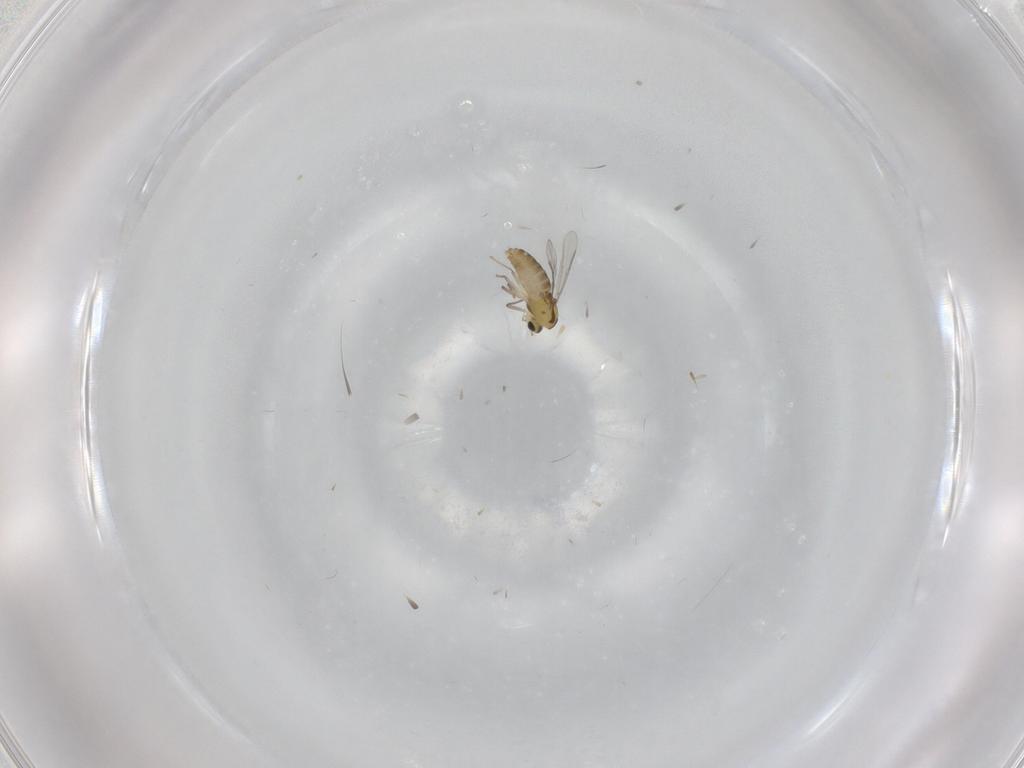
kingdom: Animalia
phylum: Arthropoda
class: Insecta
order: Diptera
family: Chironomidae
